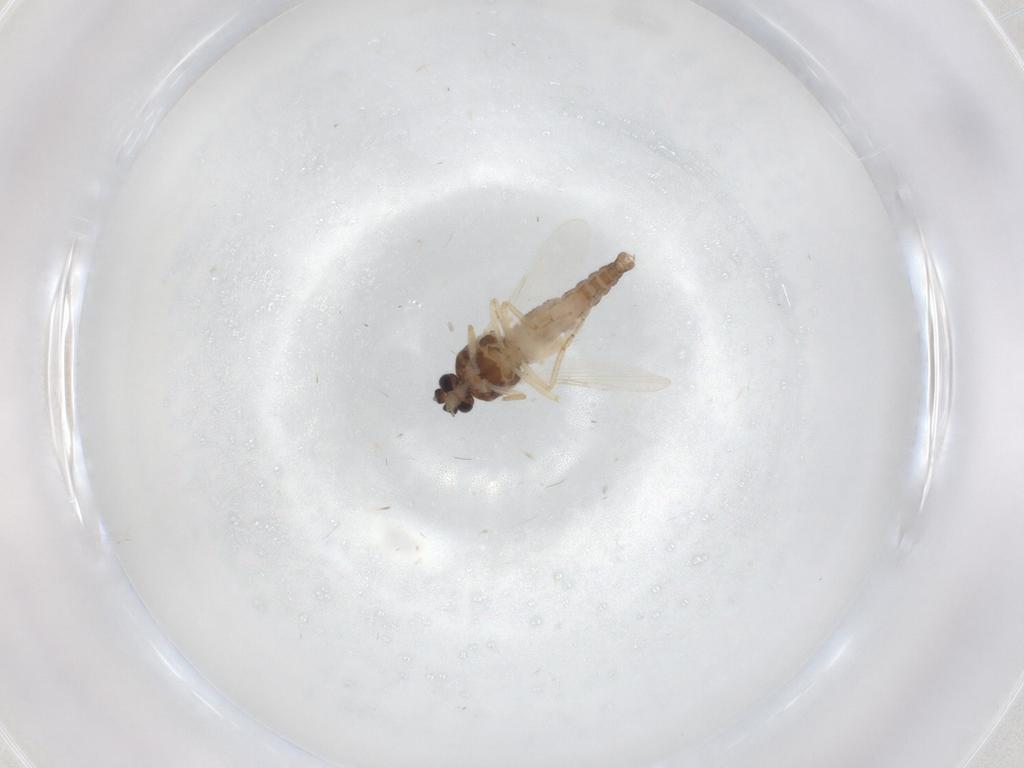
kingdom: Animalia
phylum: Arthropoda
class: Insecta
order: Diptera
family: Ceratopogonidae
